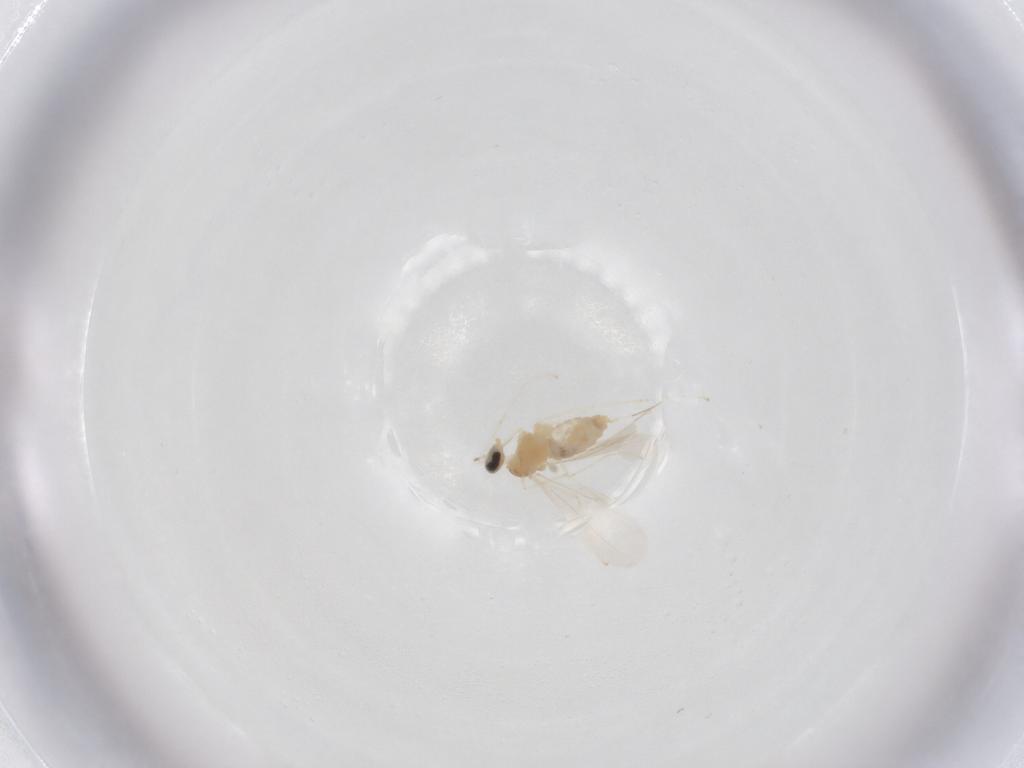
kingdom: Animalia
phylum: Arthropoda
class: Insecta
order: Diptera
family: Cecidomyiidae
